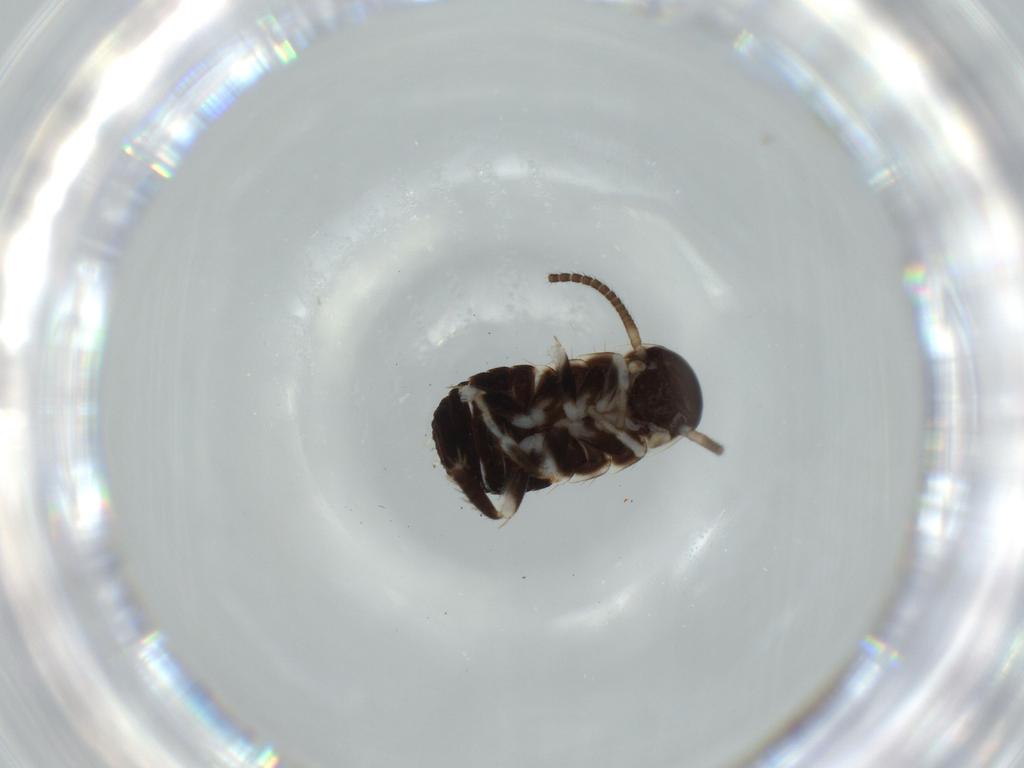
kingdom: Animalia
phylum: Arthropoda
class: Insecta
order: Blattodea
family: Ectobiidae
